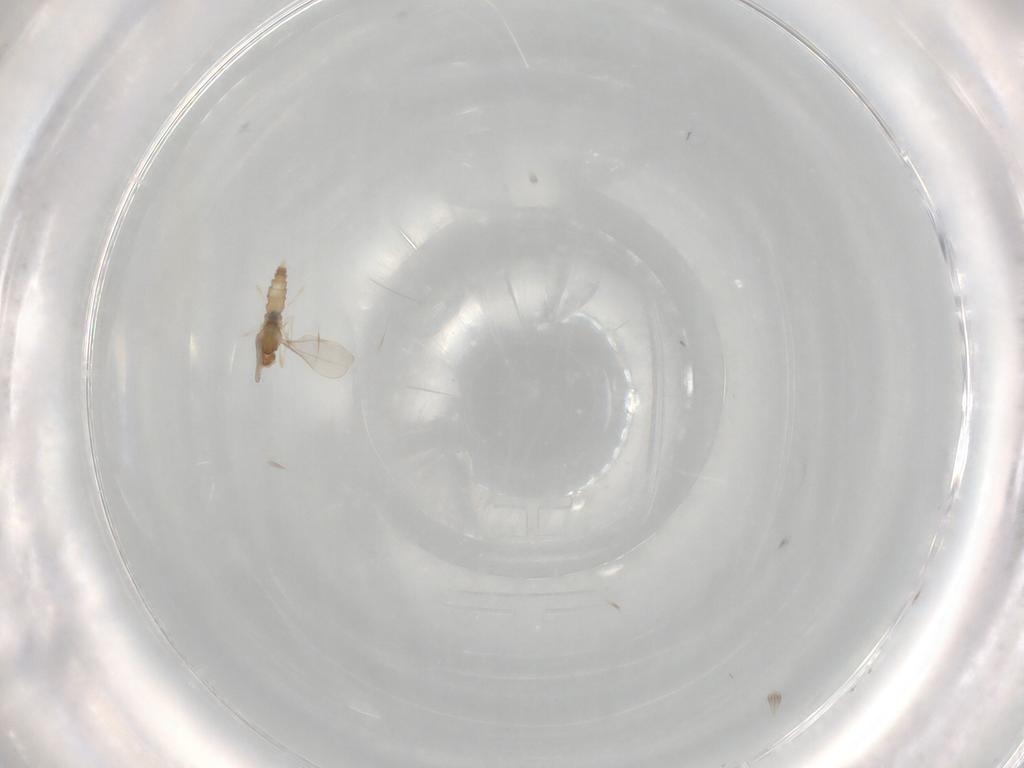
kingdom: Animalia
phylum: Arthropoda
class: Insecta
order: Diptera
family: Cecidomyiidae
